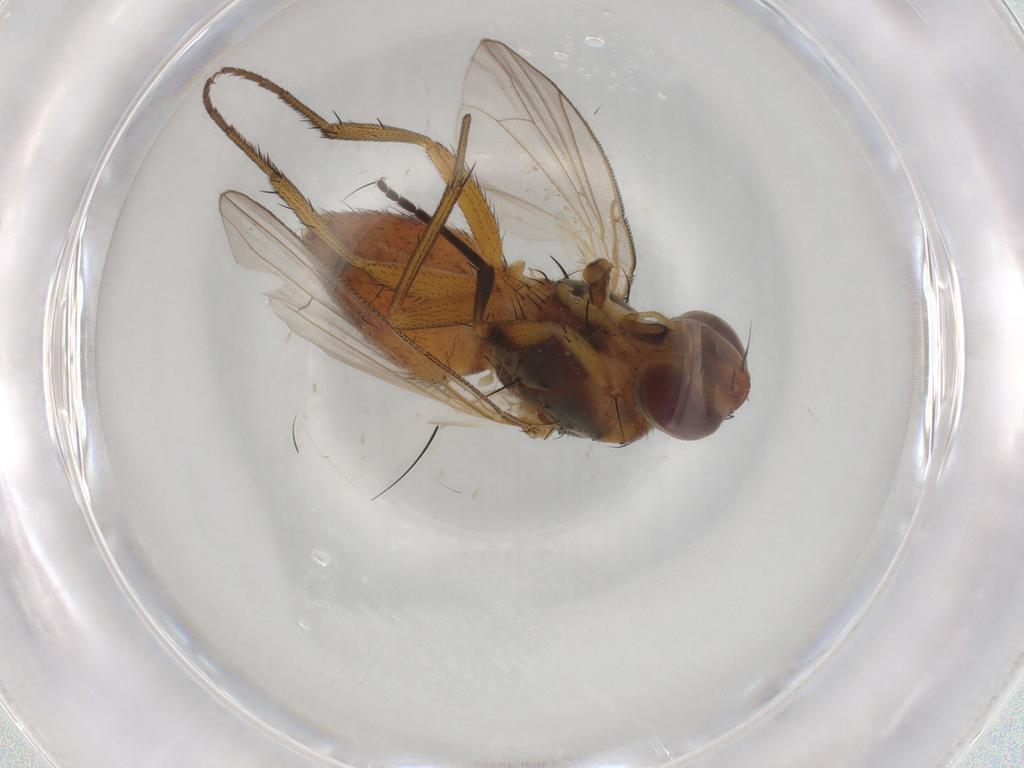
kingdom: Animalia
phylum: Arthropoda
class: Insecta
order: Diptera
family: Muscidae
